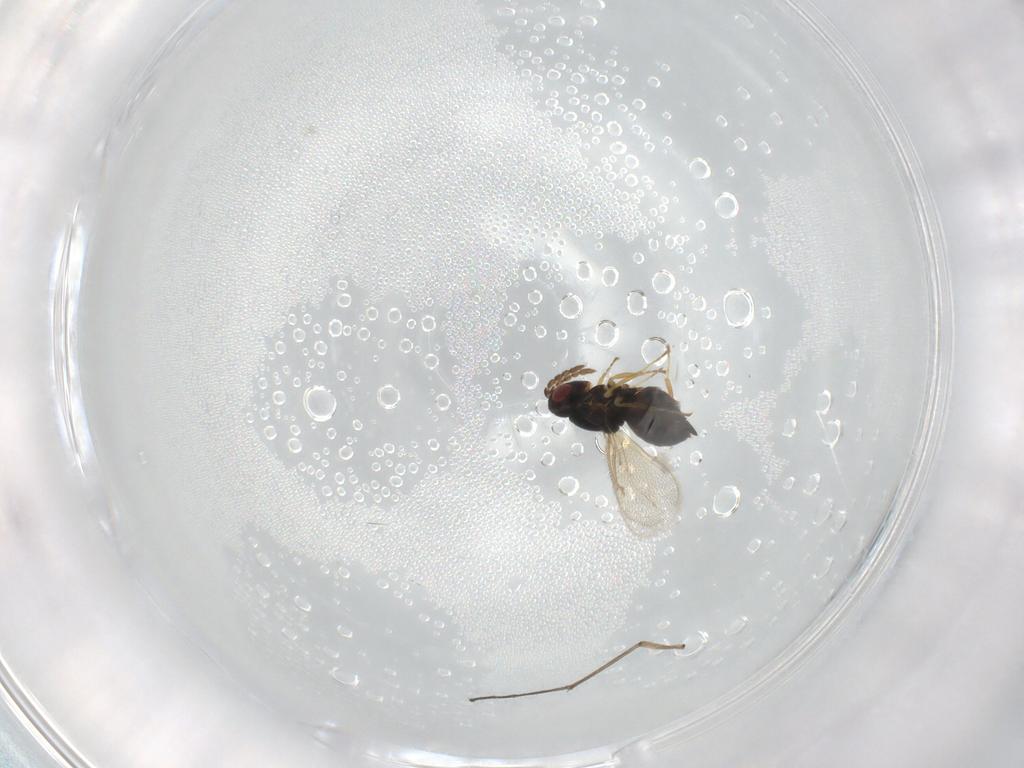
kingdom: Animalia
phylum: Arthropoda
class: Insecta
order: Hymenoptera
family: Eulophidae
